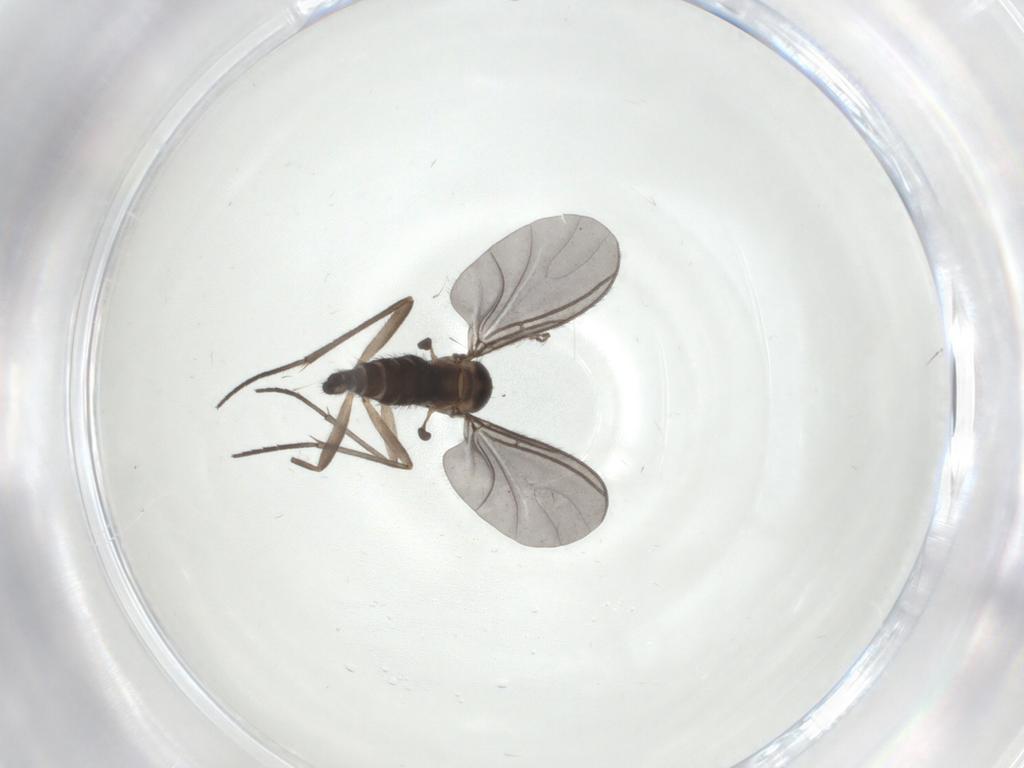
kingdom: Animalia
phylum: Arthropoda
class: Insecta
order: Diptera
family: Sciaridae
